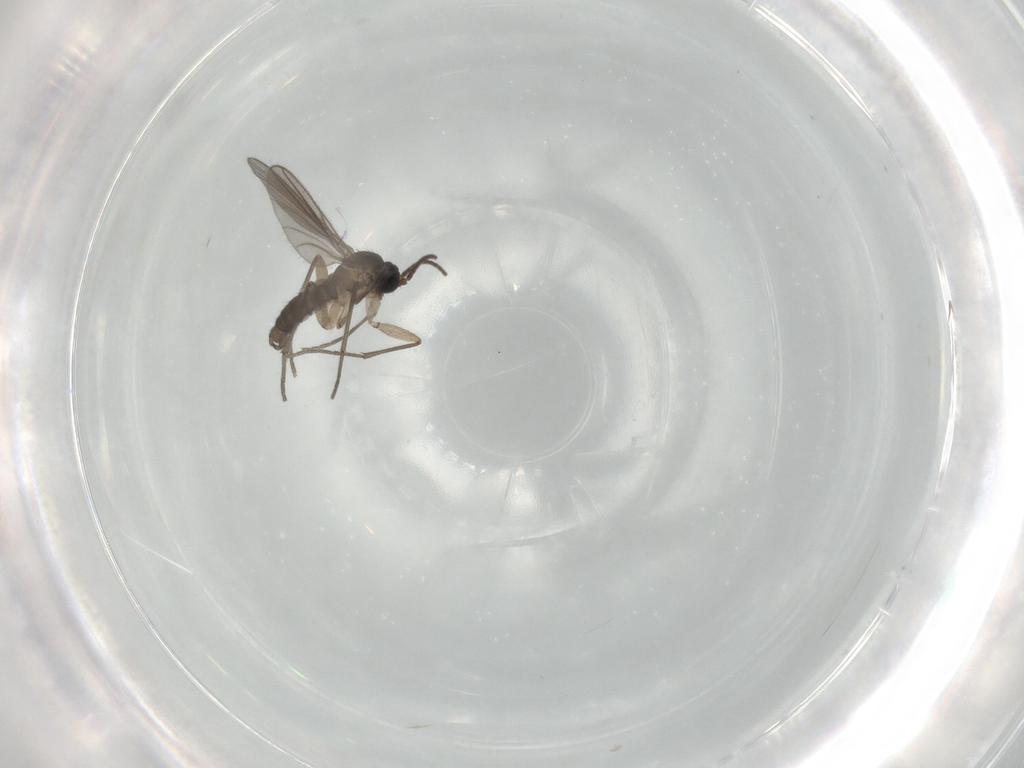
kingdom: Animalia
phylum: Arthropoda
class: Insecta
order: Diptera
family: Sciaridae
